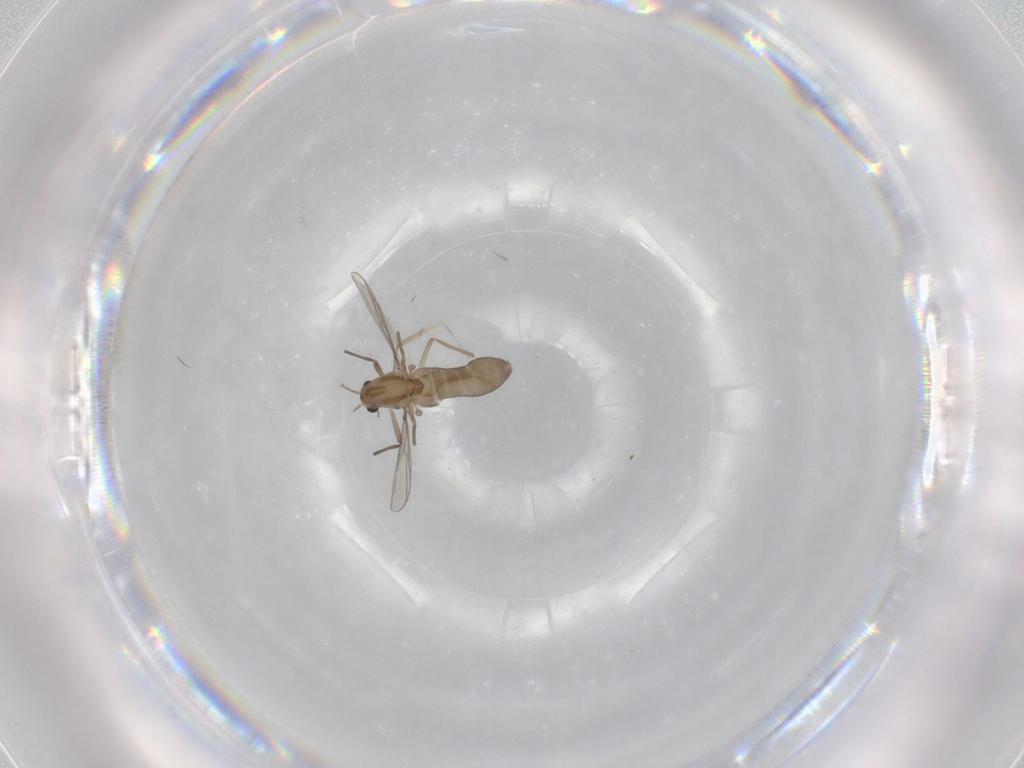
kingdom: Animalia
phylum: Arthropoda
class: Insecta
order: Diptera
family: Chironomidae
